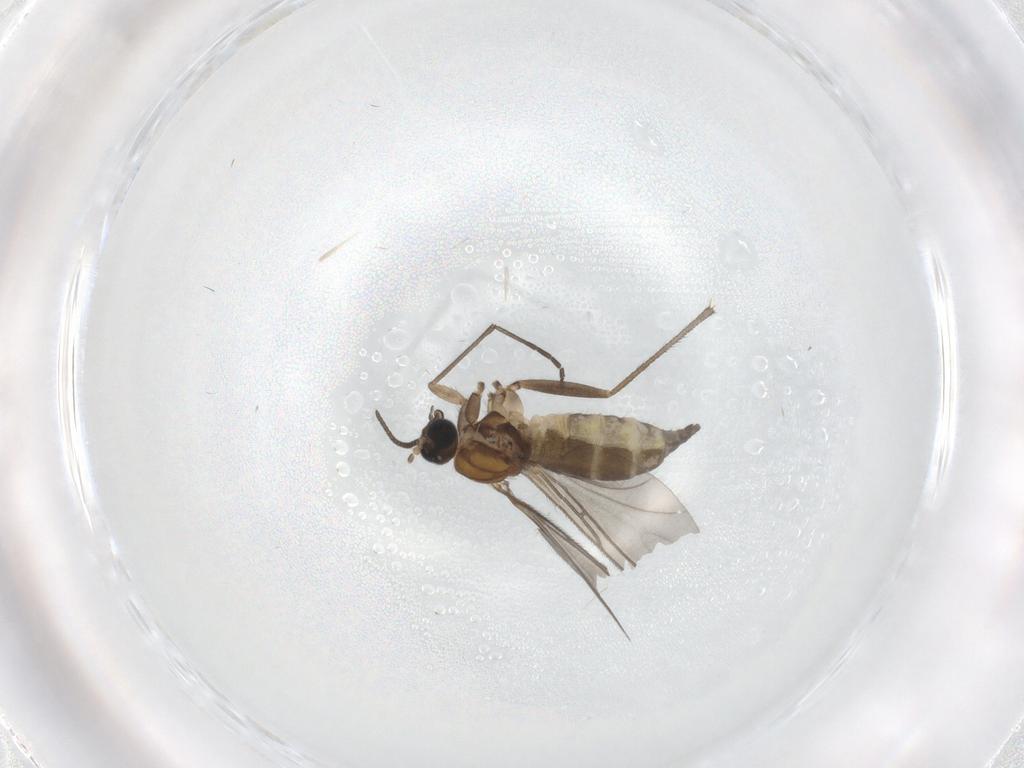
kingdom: Animalia
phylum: Arthropoda
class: Insecta
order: Diptera
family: Sciaridae
